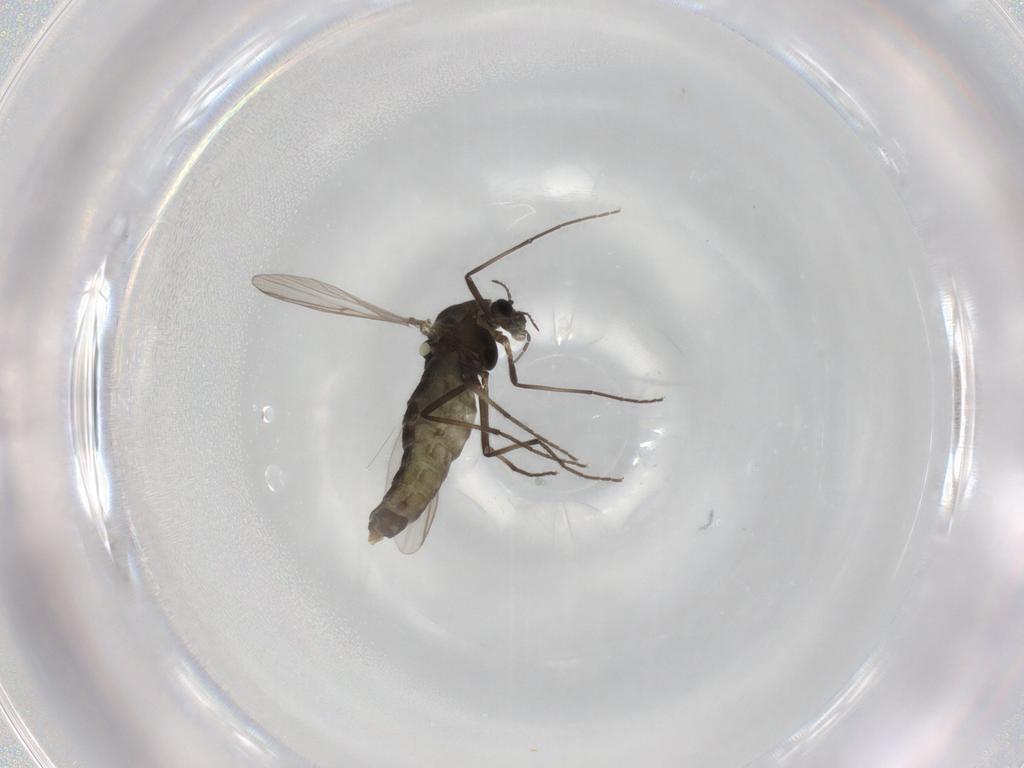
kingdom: Animalia
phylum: Arthropoda
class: Insecta
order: Diptera
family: Chironomidae
